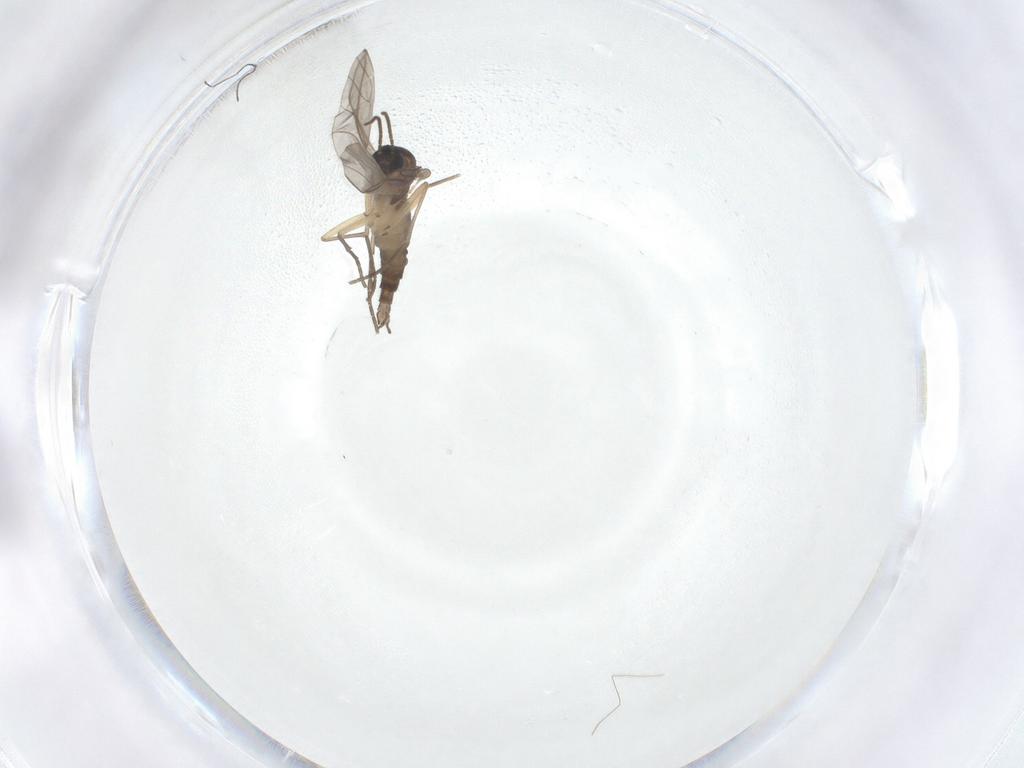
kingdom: Animalia
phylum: Arthropoda
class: Insecta
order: Diptera
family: Sciaridae
